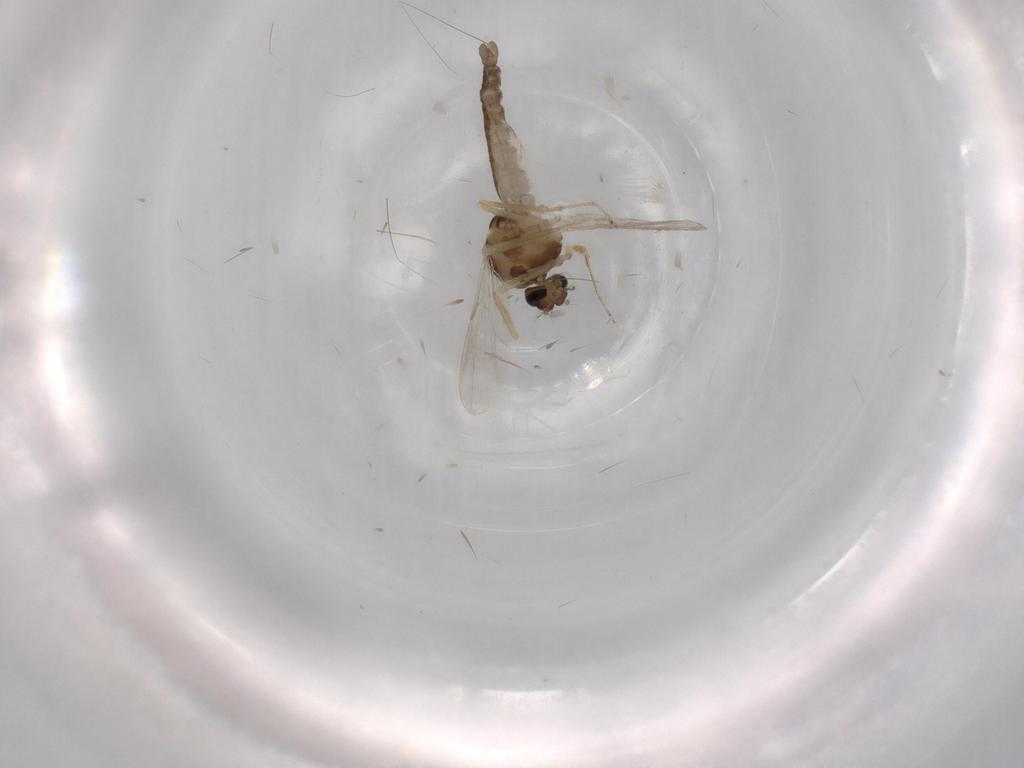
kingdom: Animalia
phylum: Arthropoda
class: Insecta
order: Diptera
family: Ceratopogonidae
